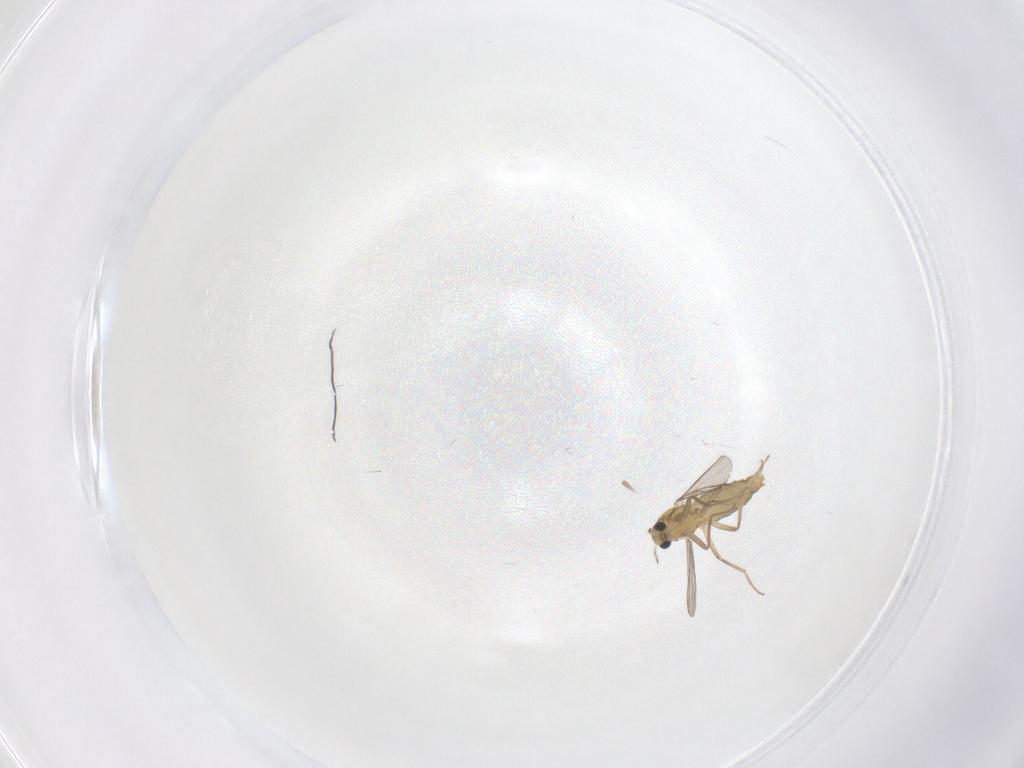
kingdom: Animalia
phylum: Arthropoda
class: Insecta
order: Diptera
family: Chironomidae
